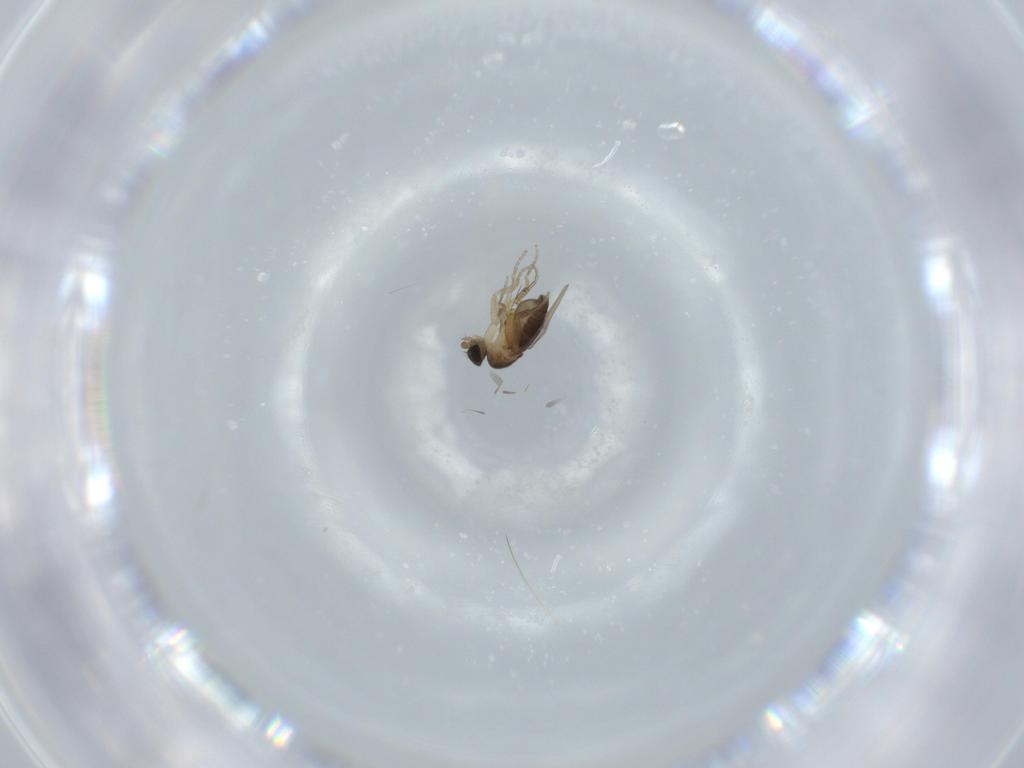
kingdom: Animalia
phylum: Arthropoda
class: Insecta
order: Diptera
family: Phoridae
